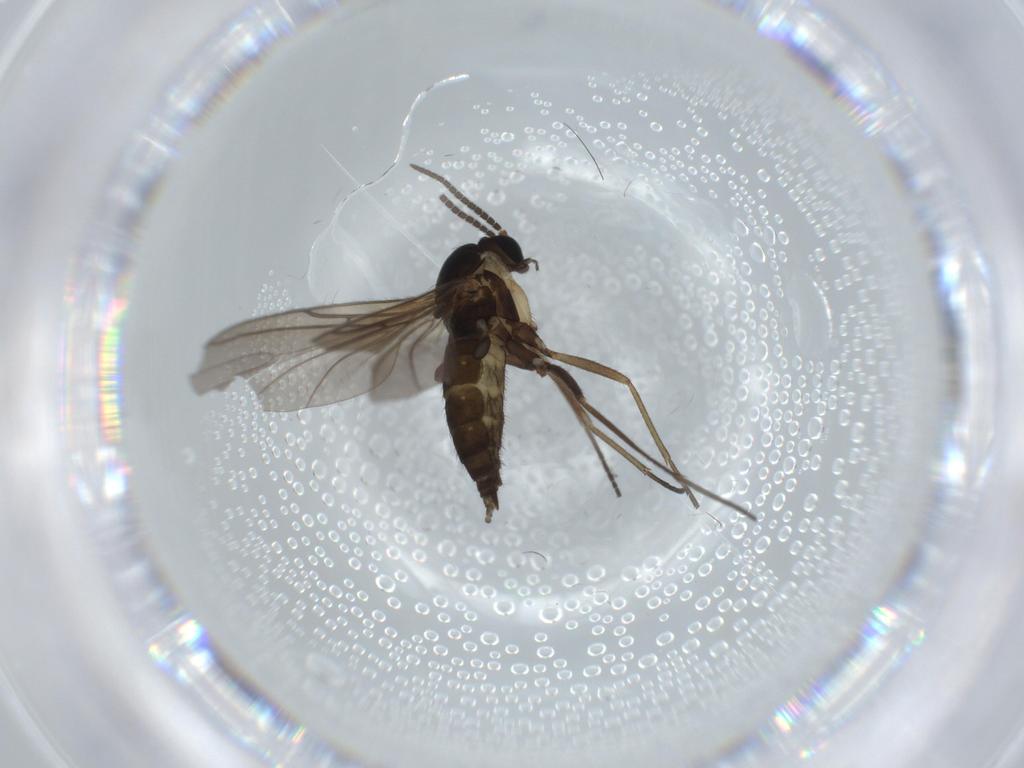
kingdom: Animalia
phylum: Arthropoda
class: Insecta
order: Diptera
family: Sciaridae
